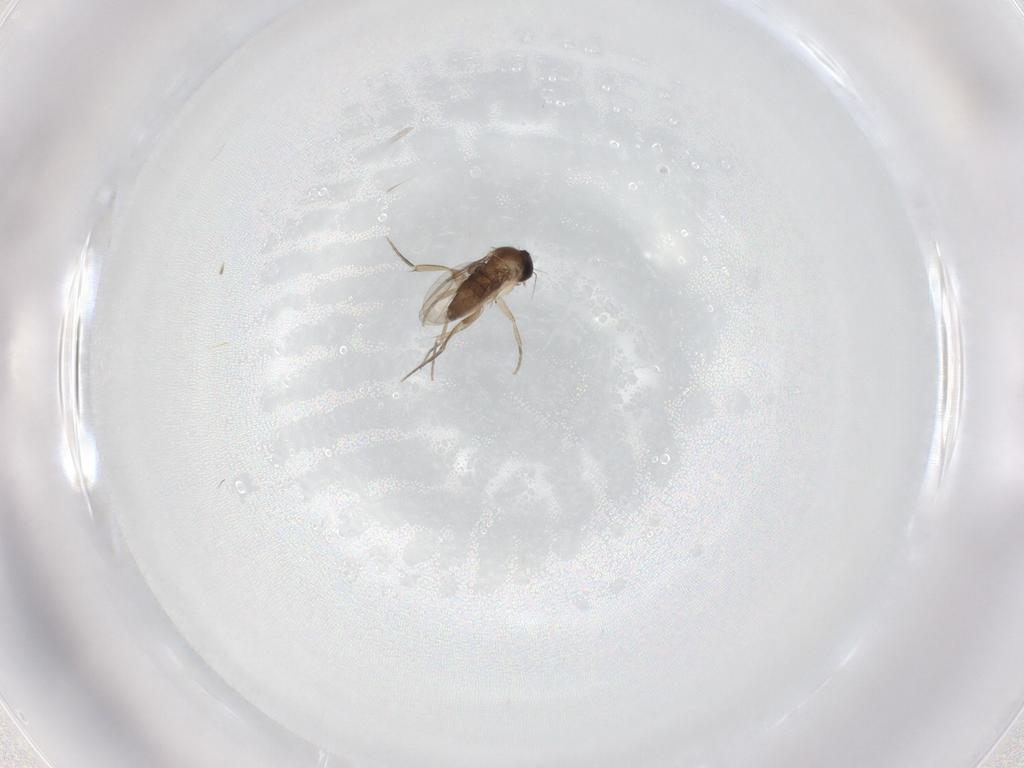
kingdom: Animalia
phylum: Arthropoda
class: Insecta
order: Diptera
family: Phoridae
